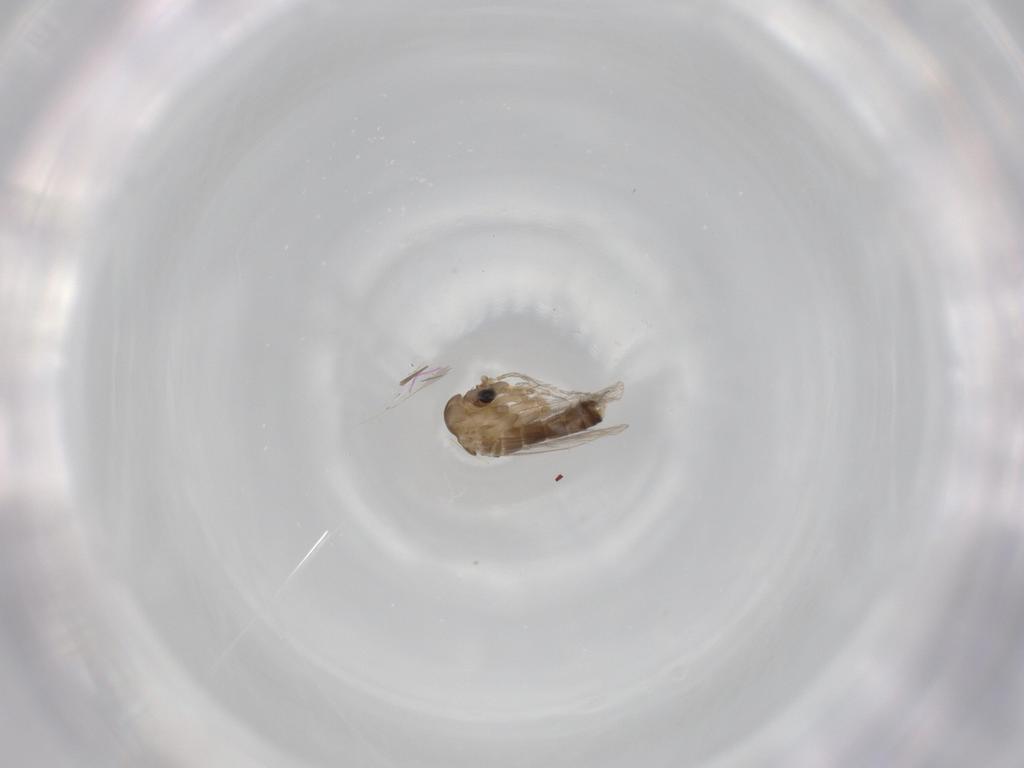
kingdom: Animalia
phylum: Arthropoda
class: Insecta
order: Diptera
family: Psychodidae
